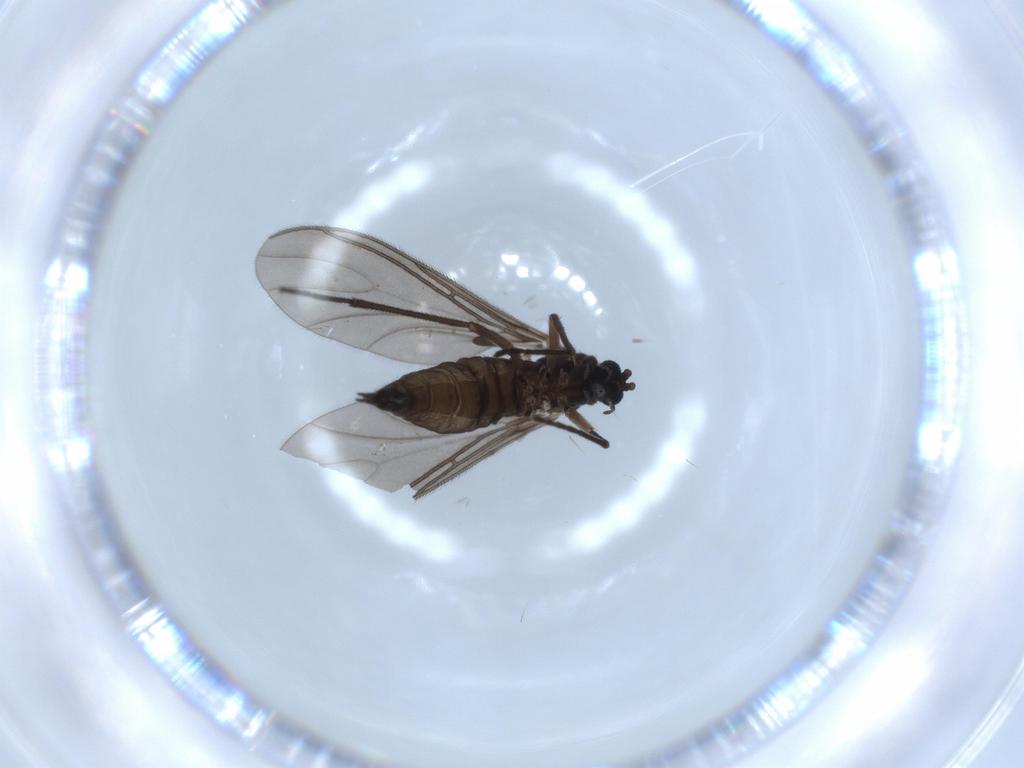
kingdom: Animalia
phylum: Arthropoda
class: Insecta
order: Diptera
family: Sciaridae
